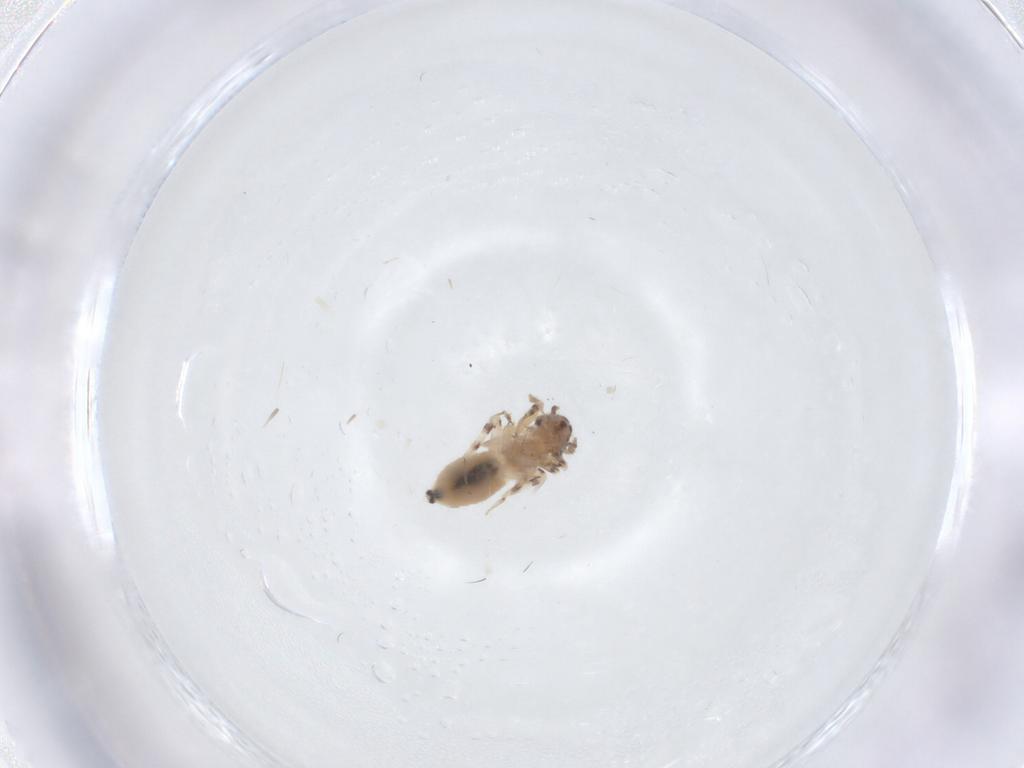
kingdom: Animalia
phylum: Arthropoda
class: Insecta
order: Psocodea
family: Lepidopsocidae
